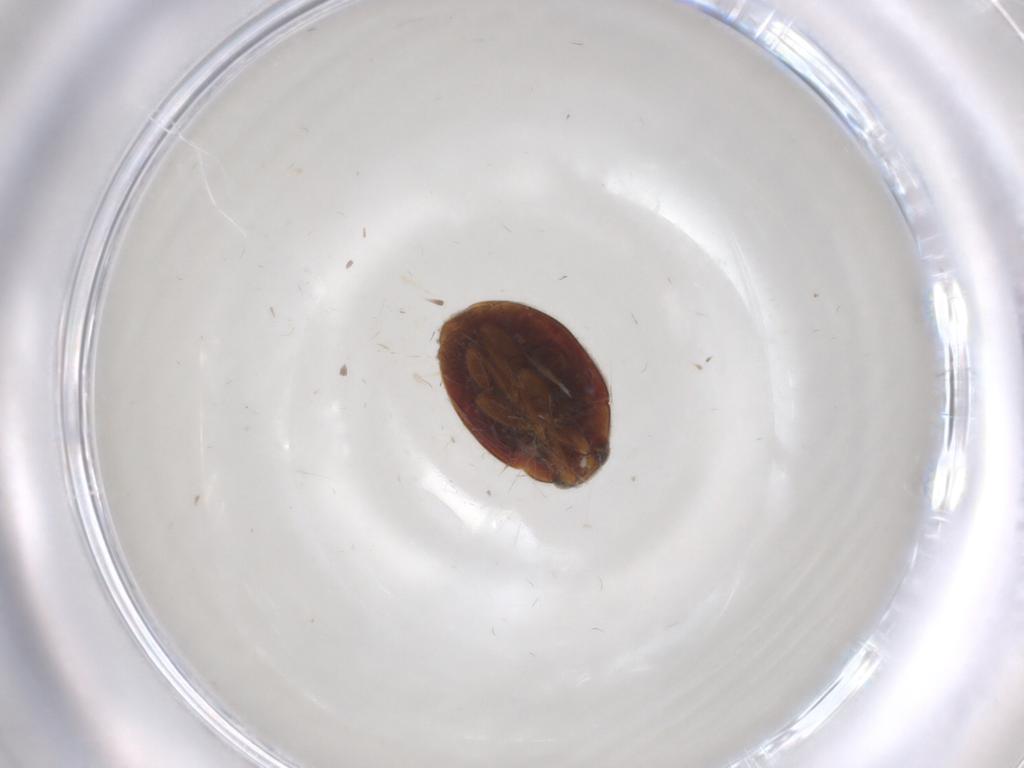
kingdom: Animalia
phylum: Arthropoda
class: Insecta
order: Coleoptera
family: Coccinellidae
